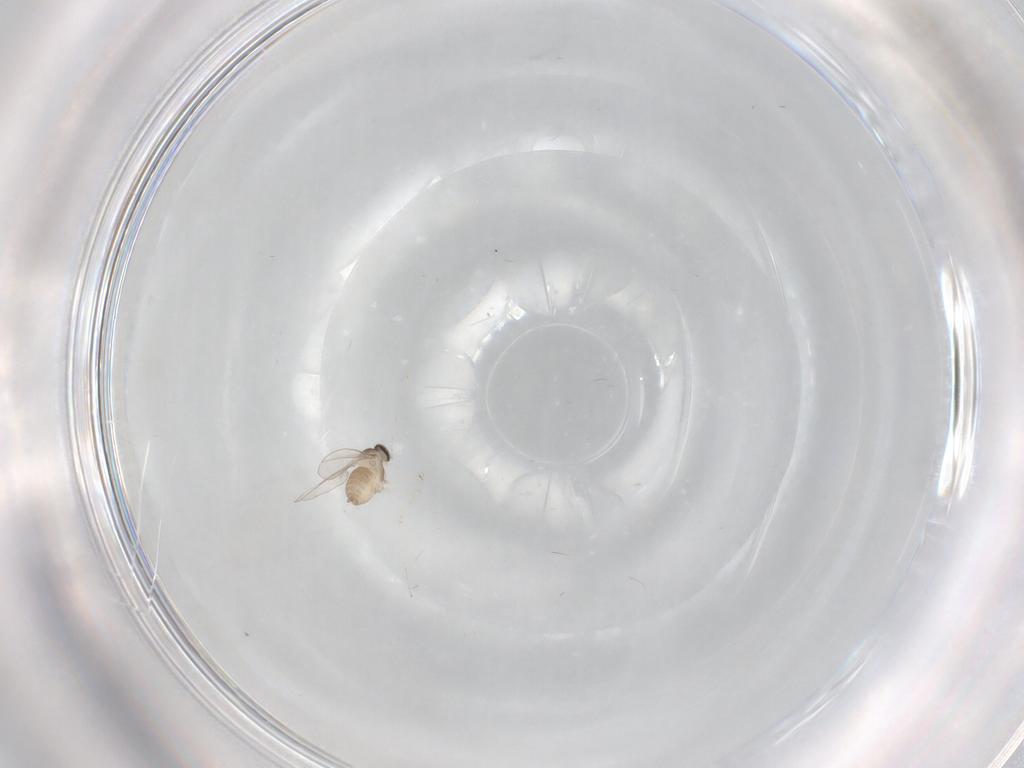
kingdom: Animalia
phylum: Arthropoda
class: Insecta
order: Diptera
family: Cecidomyiidae
